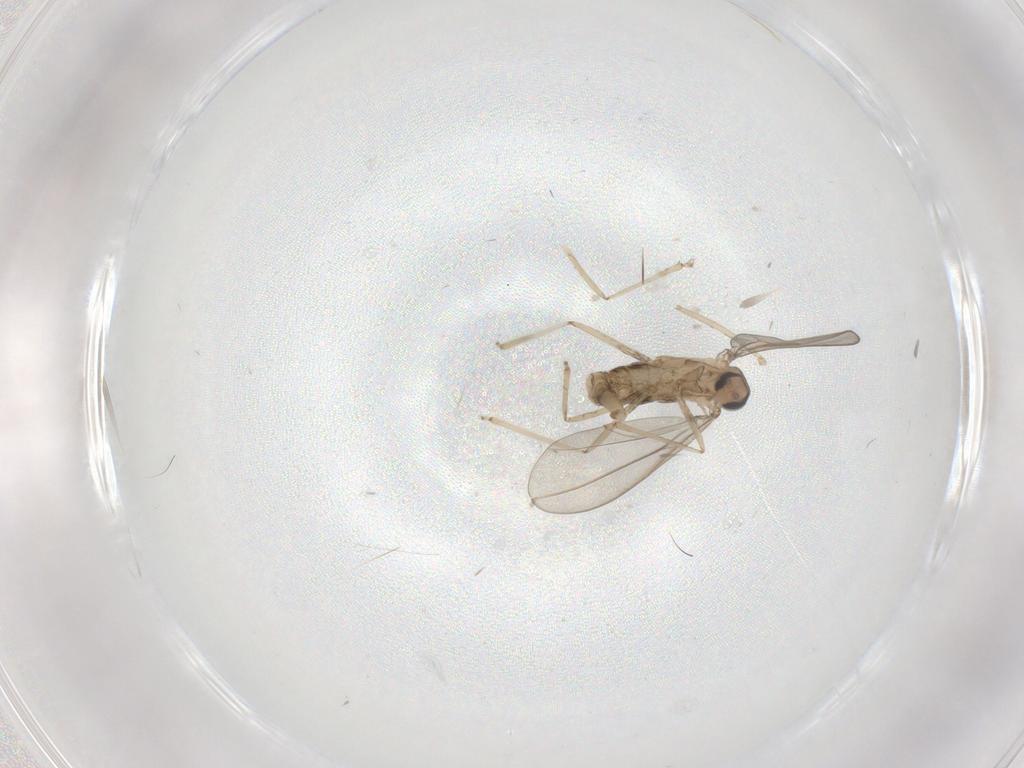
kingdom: Animalia
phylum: Arthropoda
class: Insecta
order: Diptera
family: Cecidomyiidae
